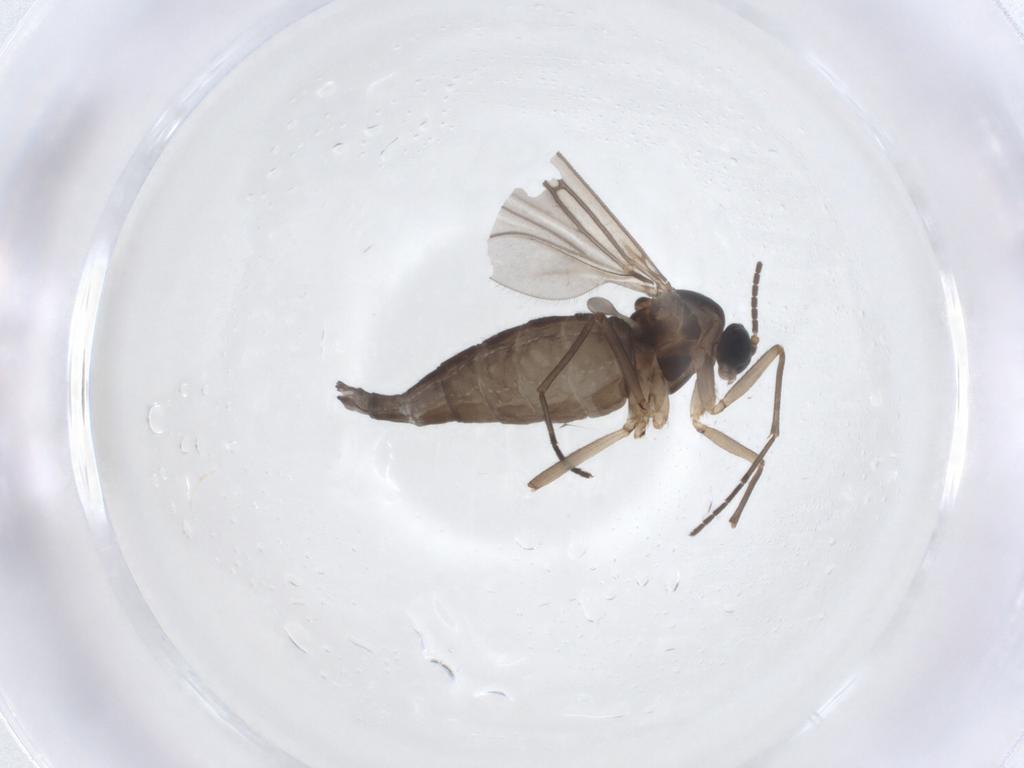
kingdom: Animalia
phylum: Arthropoda
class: Insecta
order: Diptera
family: Sciaridae
